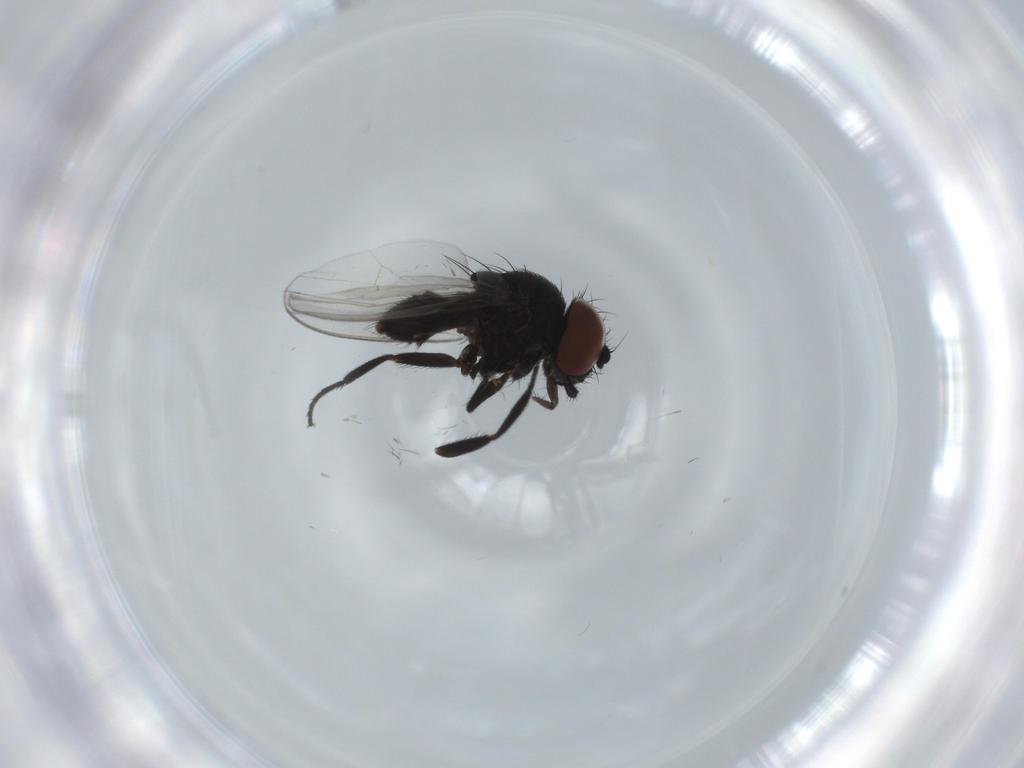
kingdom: Animalia
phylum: Arthropoda
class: Insecta
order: Diptera
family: Milichiidae
